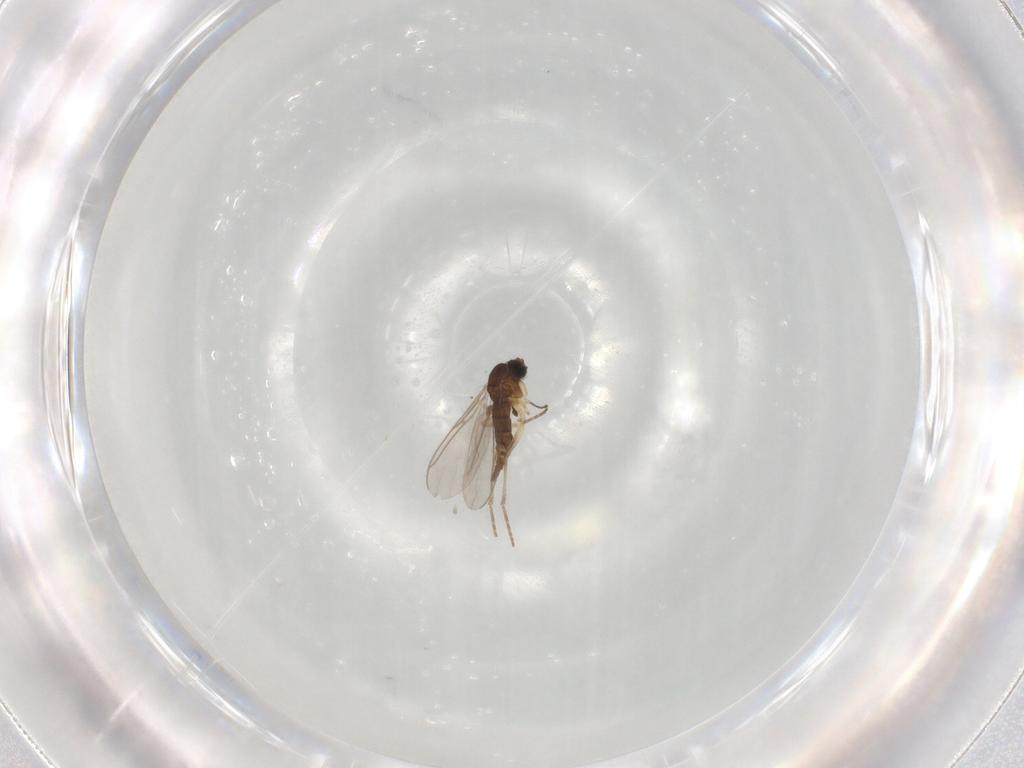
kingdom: Animalia
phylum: Arthropoda
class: Insecta
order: Diptera
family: Sciaridae
